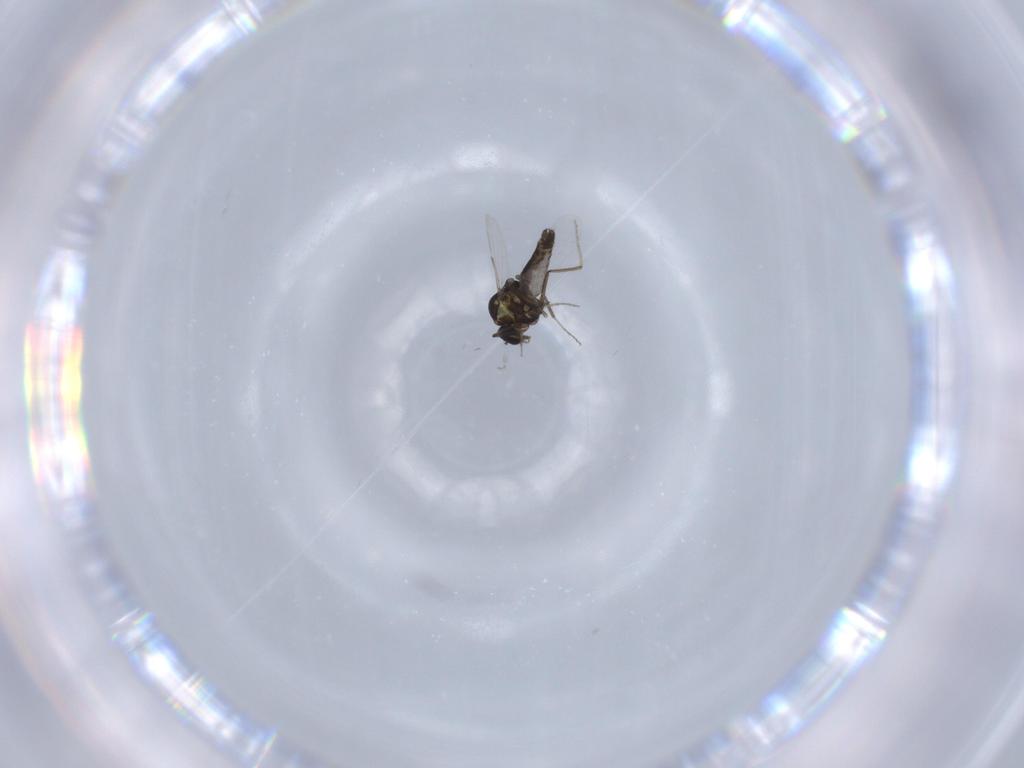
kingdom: Animalia
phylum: Arthropoda
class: Insecta
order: Diptera
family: Ceratopogonidae
